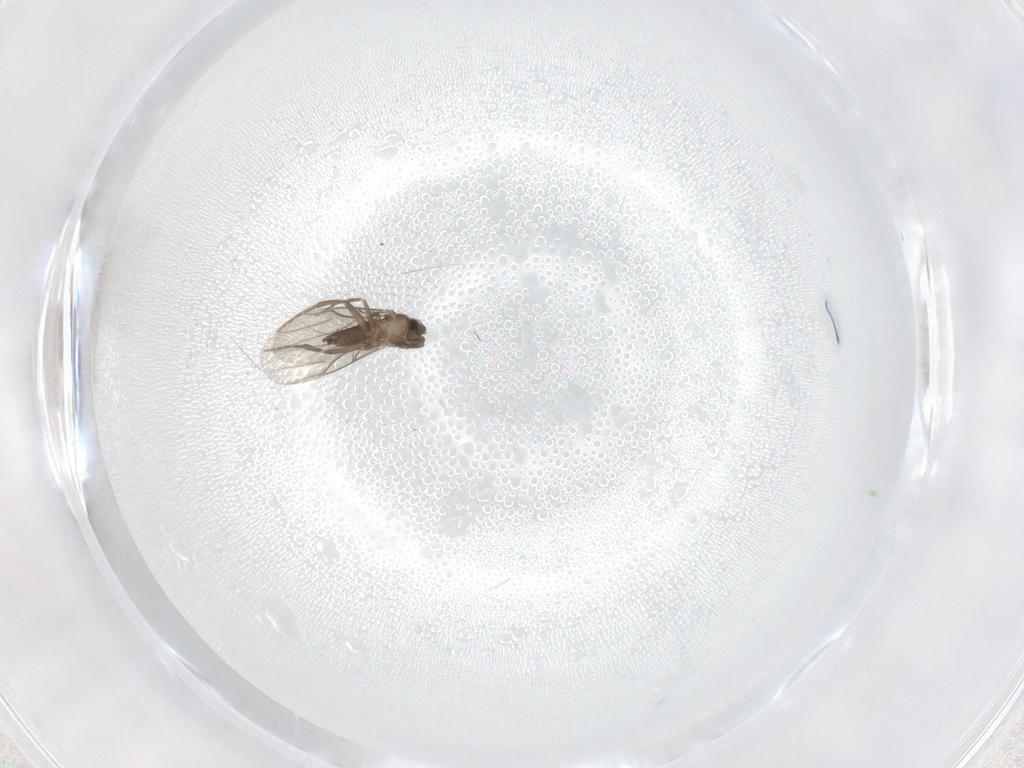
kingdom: Animalia
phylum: Arthropoda
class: Insecta
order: Diptera
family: Phoridae
